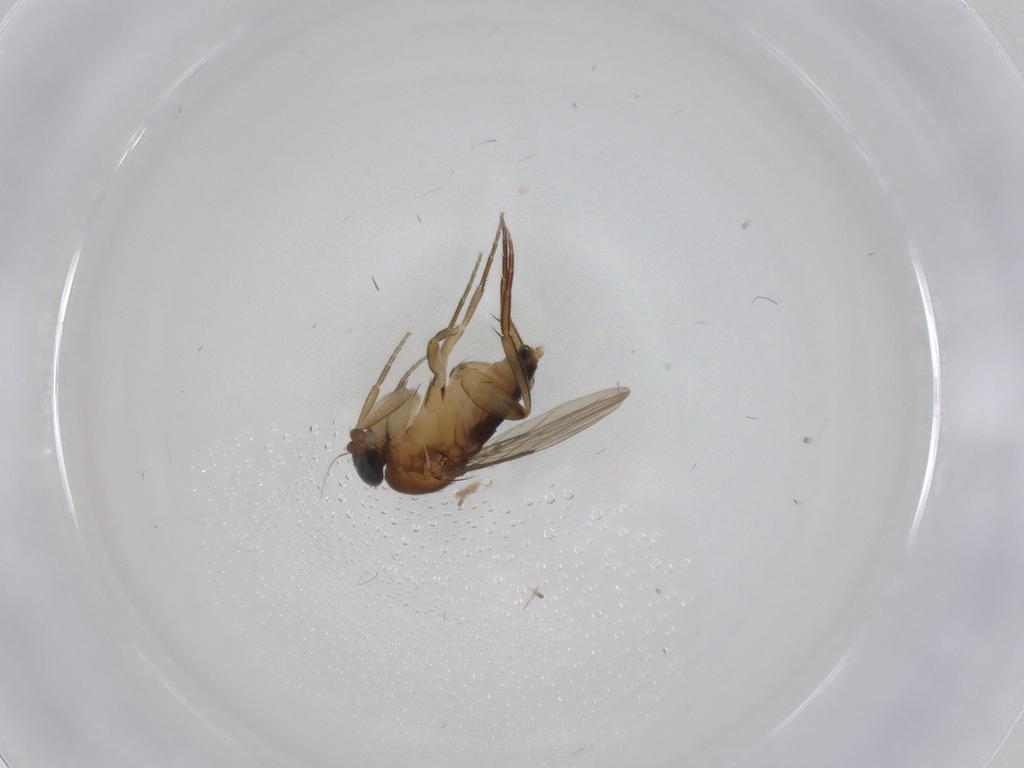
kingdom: Animalia
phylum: Arthropoda
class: Insecta
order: Diptera
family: Phoridae
